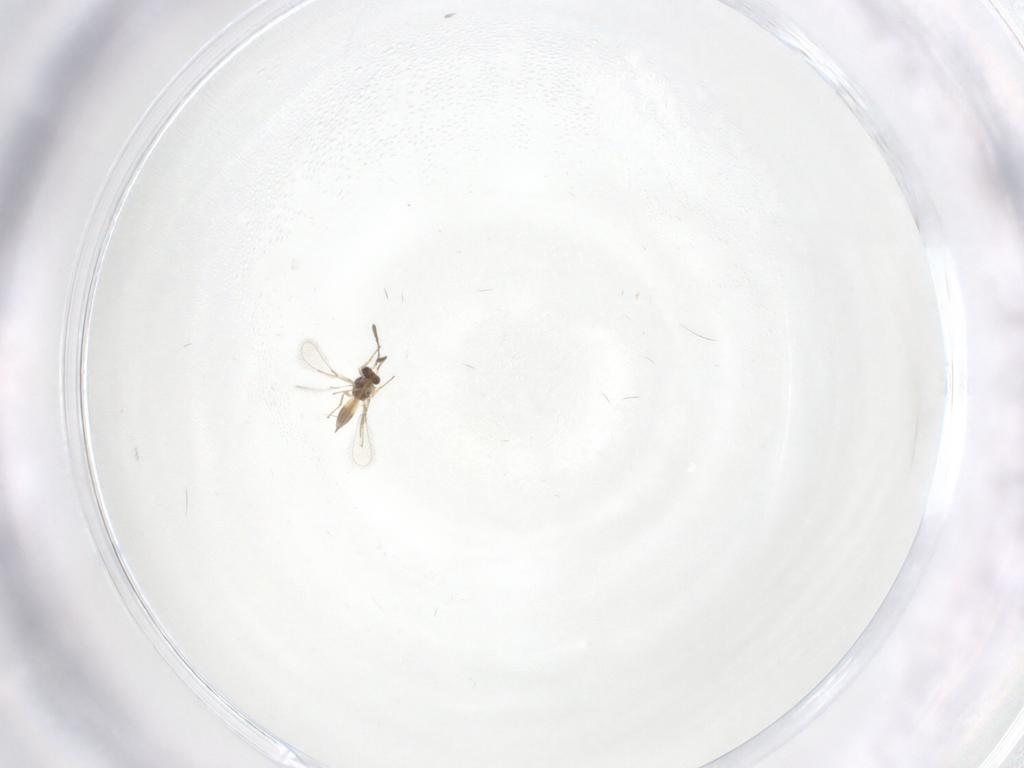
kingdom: Animalia
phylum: Arthropoda
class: Insecta
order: Hymenoptera
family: Mymaridae
